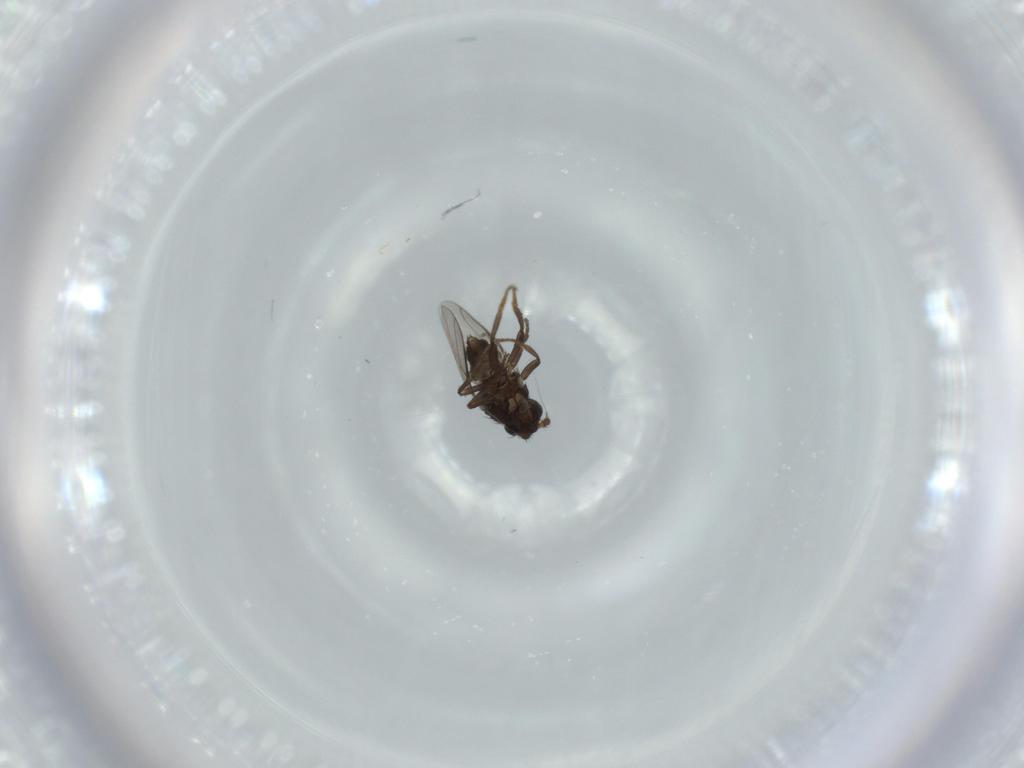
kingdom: Animalia
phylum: Arthropoda
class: Insecta
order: Diptera
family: Sphaeroceridae
